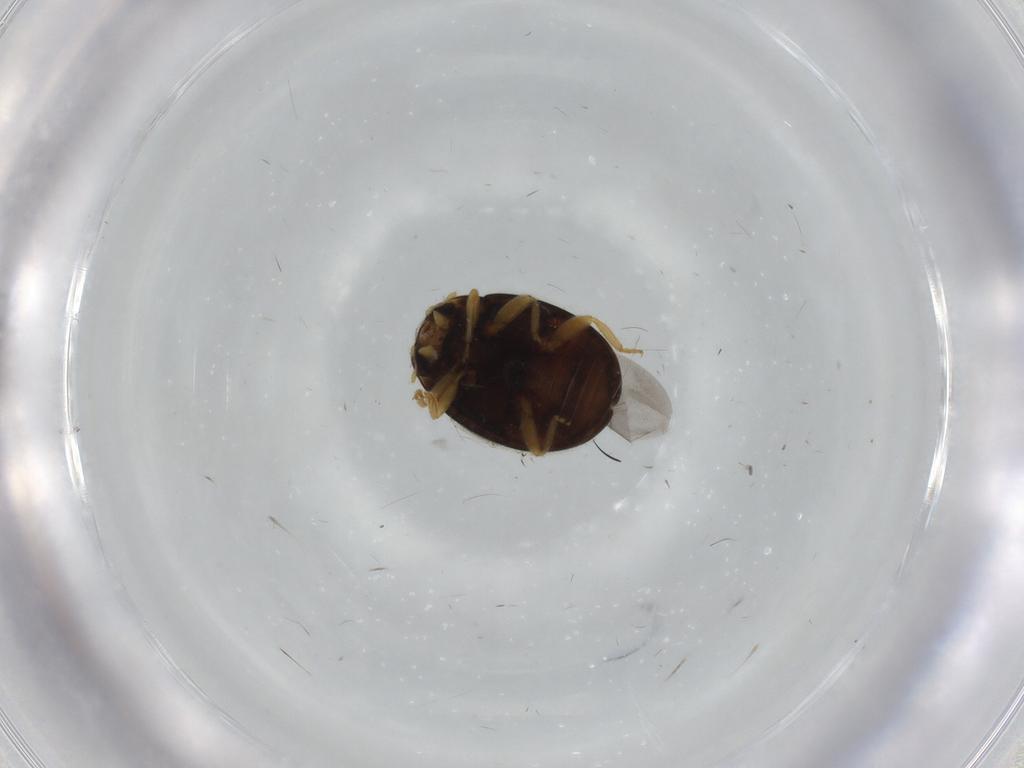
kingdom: Animalia
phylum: Arthropoda
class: Insecta
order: Coleoptera
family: Coccinellidae
